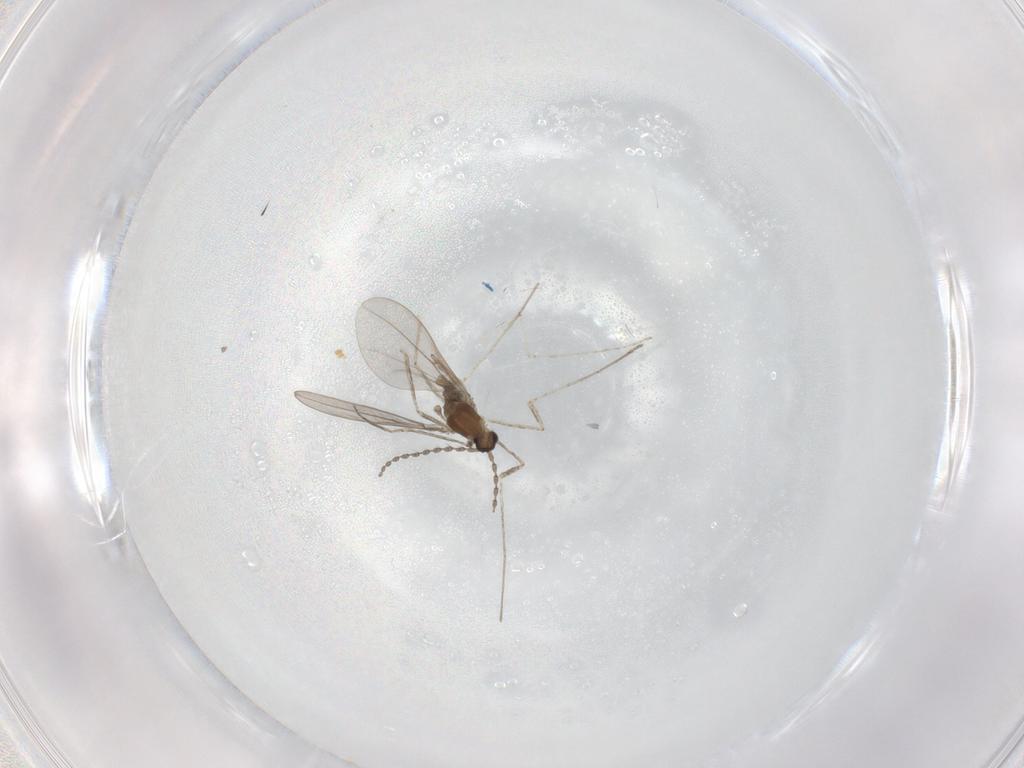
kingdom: Animalia
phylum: Arthropoda
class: Insecta
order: Diptera
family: Cecidomyiidae
